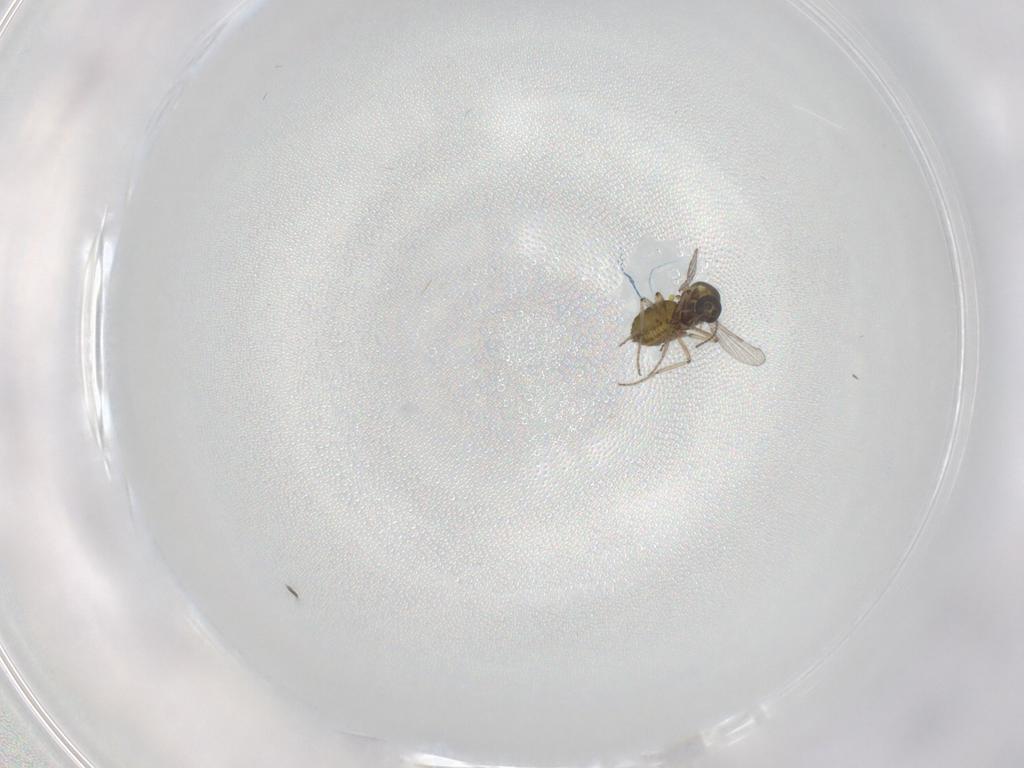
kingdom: Animalia
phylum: Arthropoda
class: Insecta
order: Diptera
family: Ceratopogonidae
